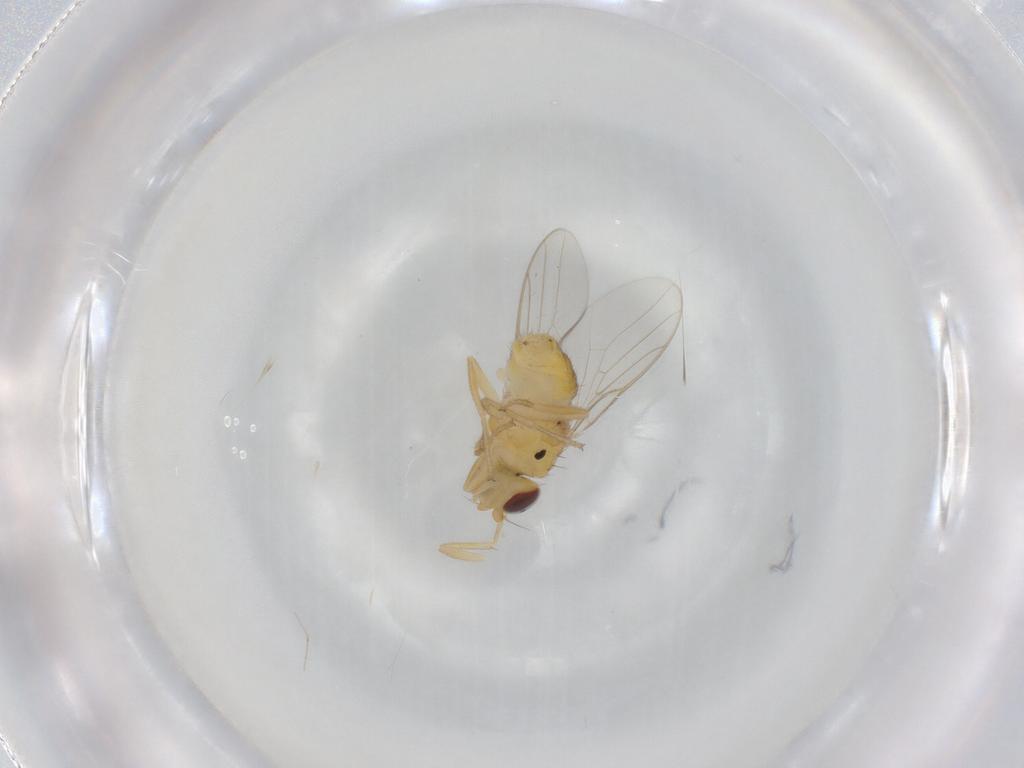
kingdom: Animalia
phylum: Arthropoda
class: Insecta
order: Diptera
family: Chloropidae
